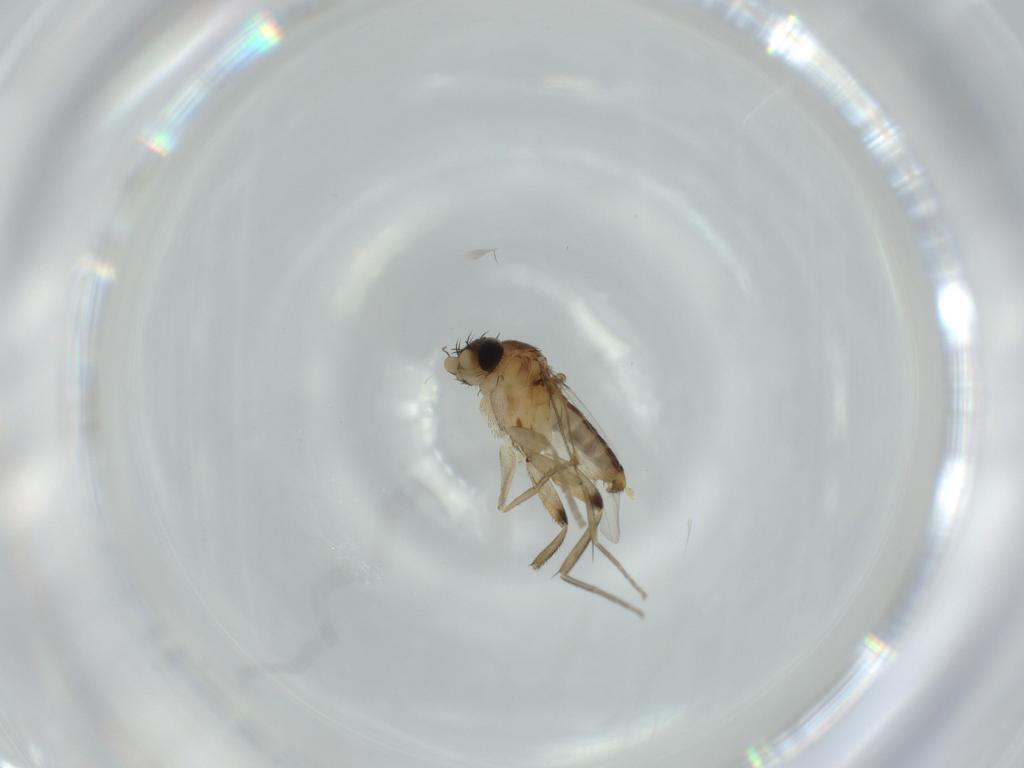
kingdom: Animalia
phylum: Arthropoda
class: Insecta
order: Diptera
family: Phoridae
